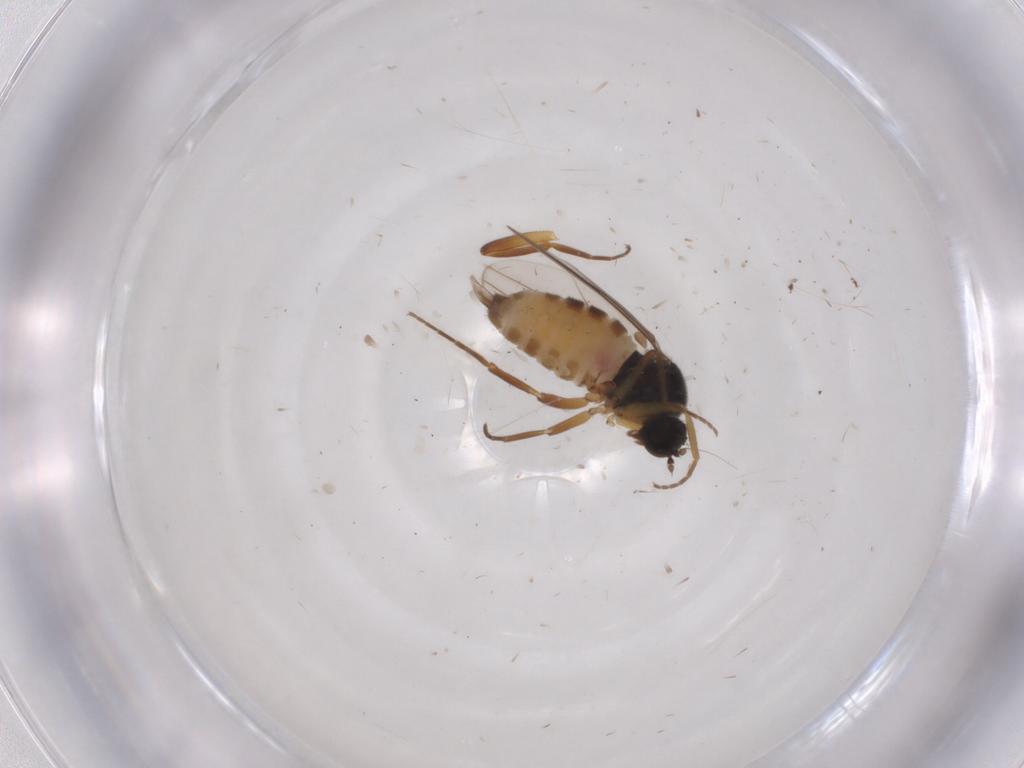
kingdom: Animalia
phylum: Arthropoda
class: Insecta
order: Diptera
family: Hybotidae
